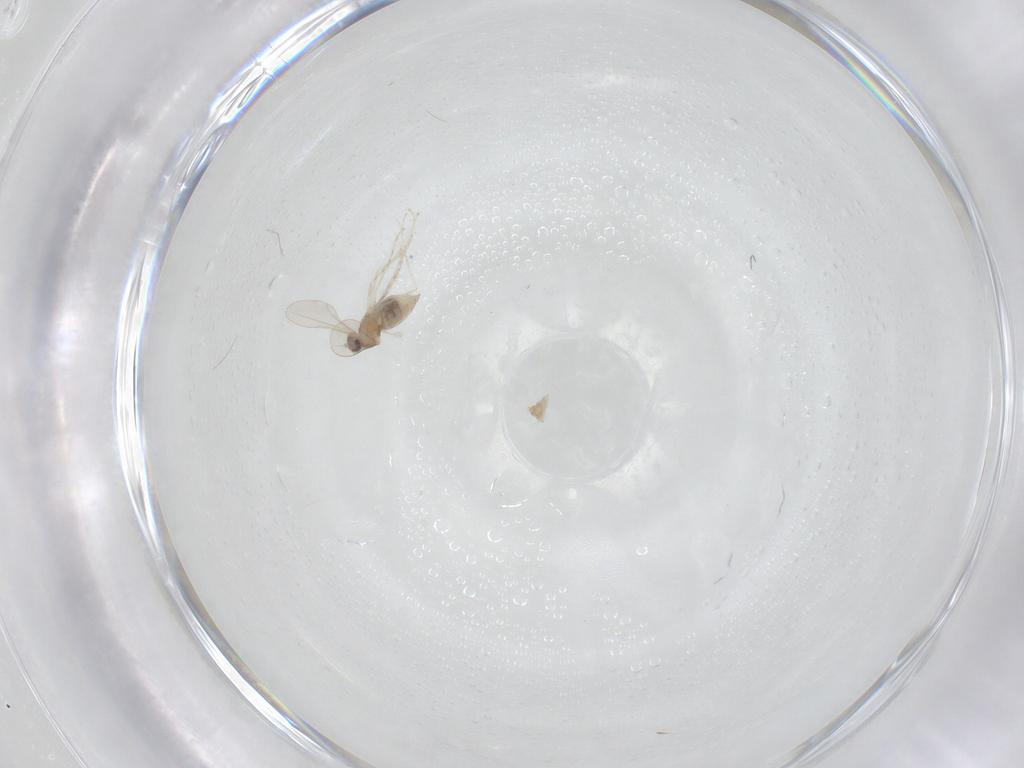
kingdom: Animalia
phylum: Arthropoda
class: Insecta
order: Diptera
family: Cecidomyiidae
